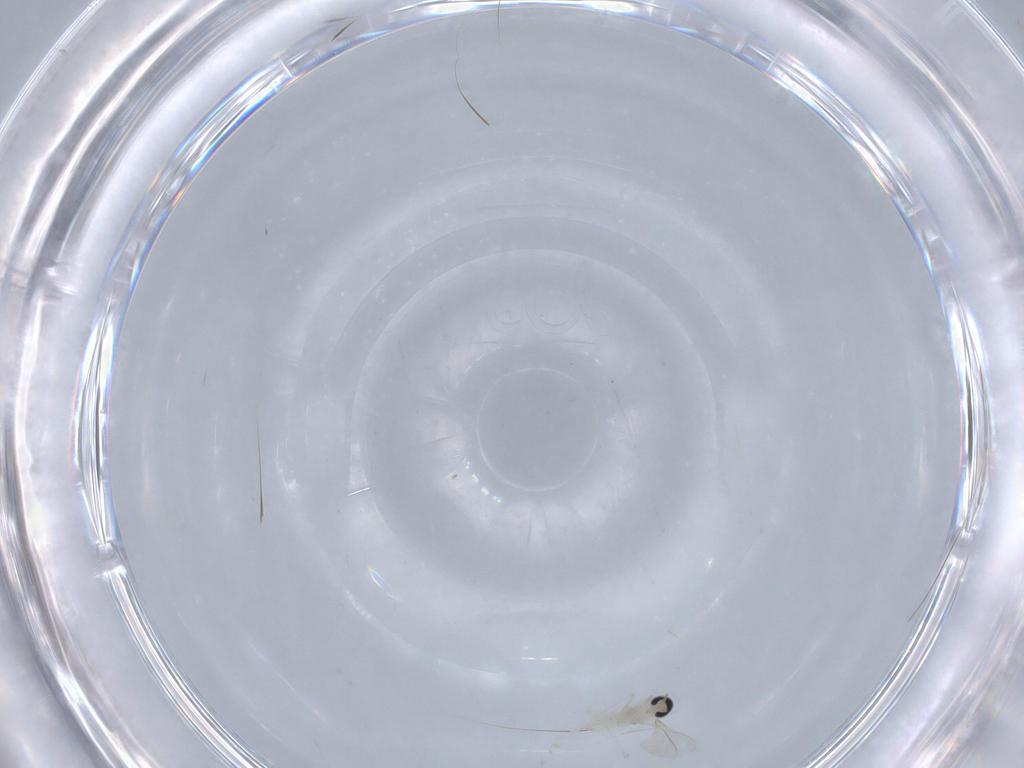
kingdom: Animalia
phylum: Arthropoda
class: Insecta
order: Diptera
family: Cecidomyiidae
